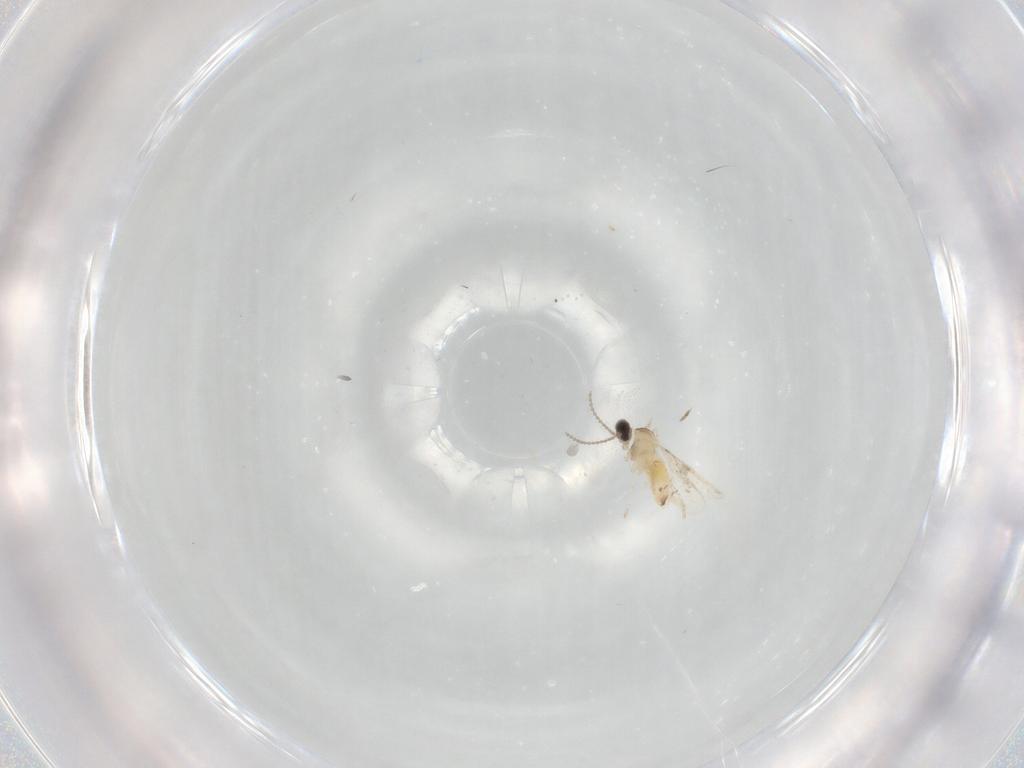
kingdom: Animalia
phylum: Arthropoda
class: Insecta
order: Diptera
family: Cecidomyiidae
